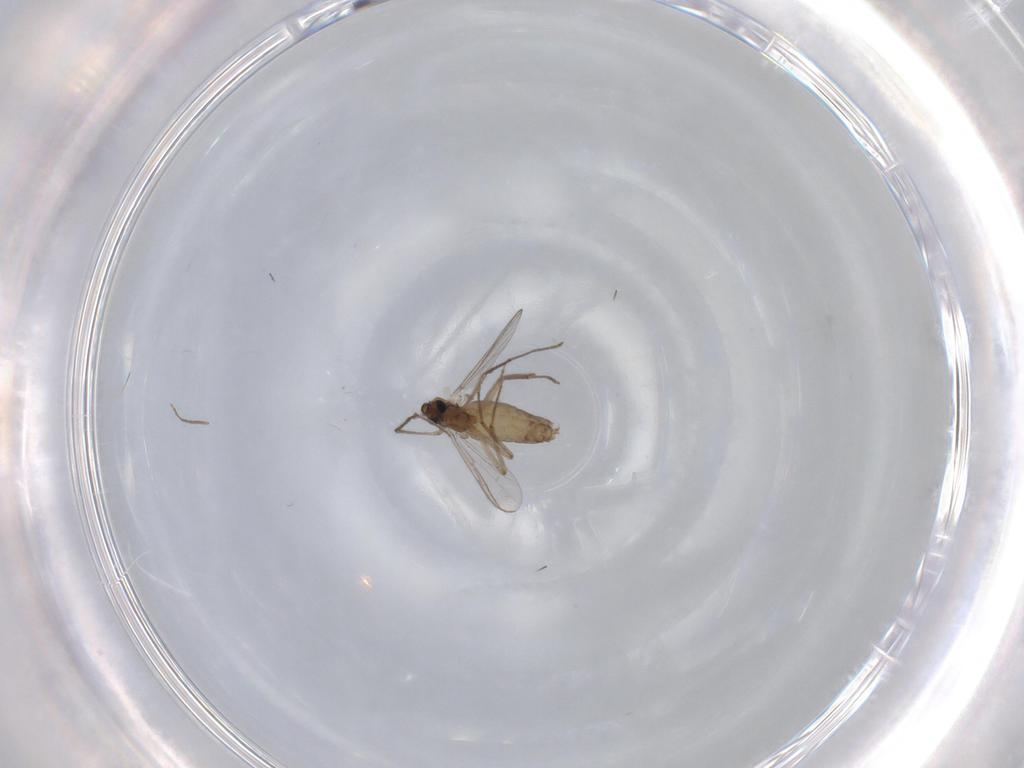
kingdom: Animalia
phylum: Arthropoda
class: Insecta
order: Diptera
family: Chironomidae
